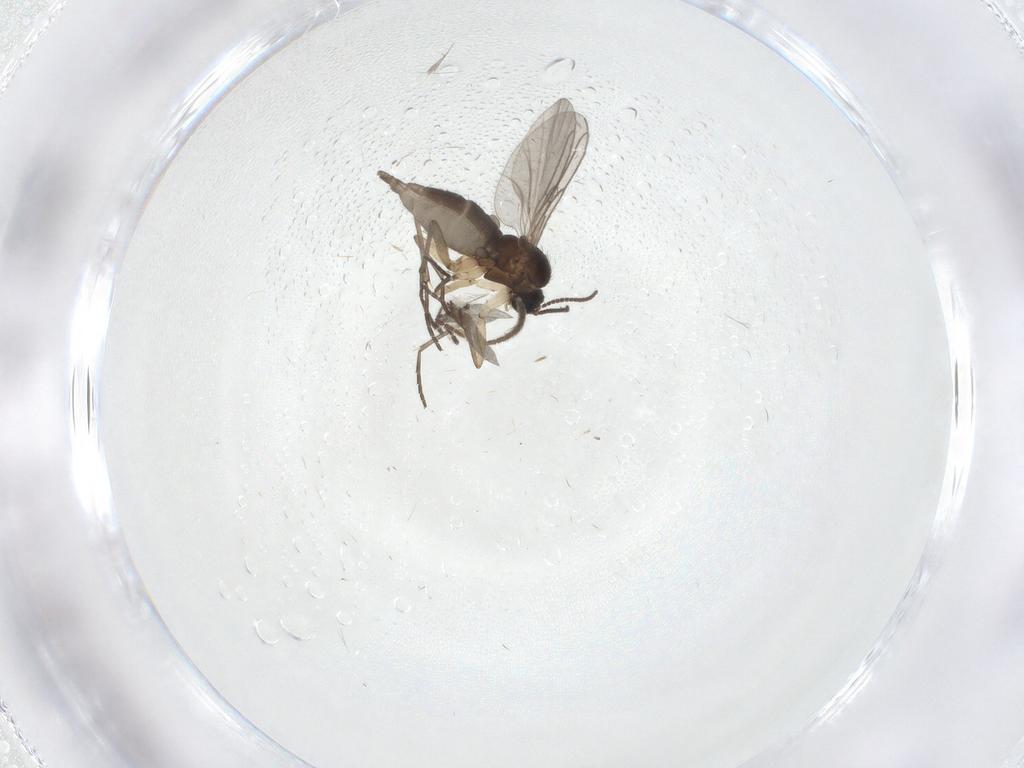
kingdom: Animalia
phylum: Arthropoda
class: Insecta
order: Diptera
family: Sciaridae
